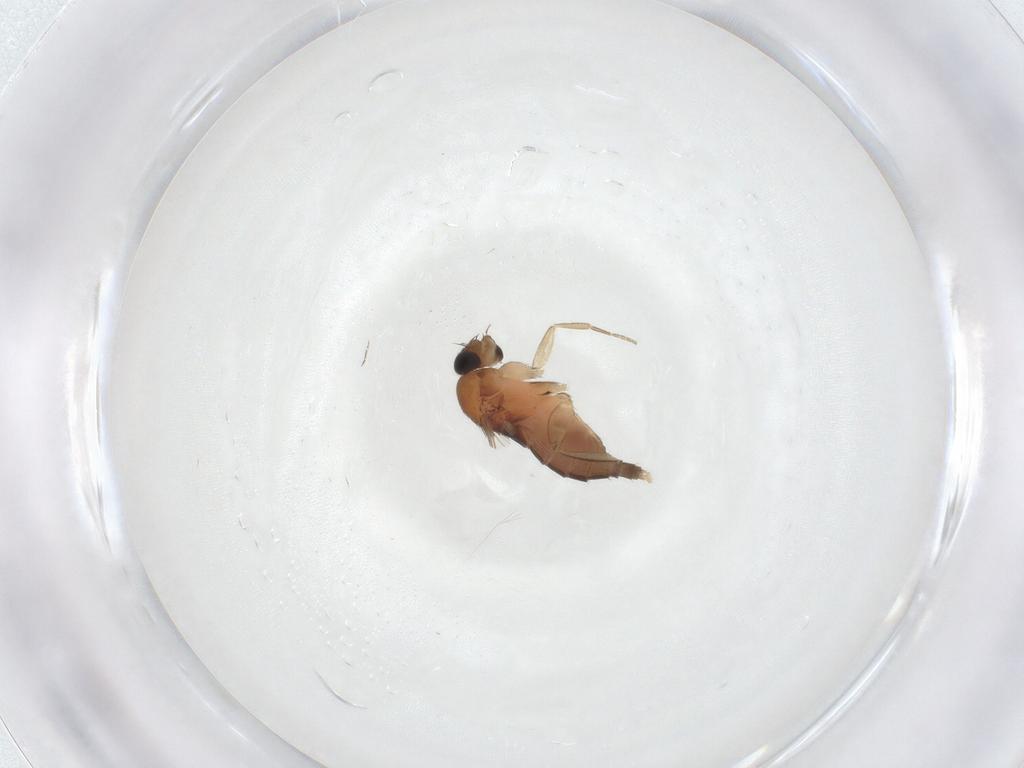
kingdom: Animalia
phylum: Arthropoda
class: Insecta
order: Diptera
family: Phoridae
